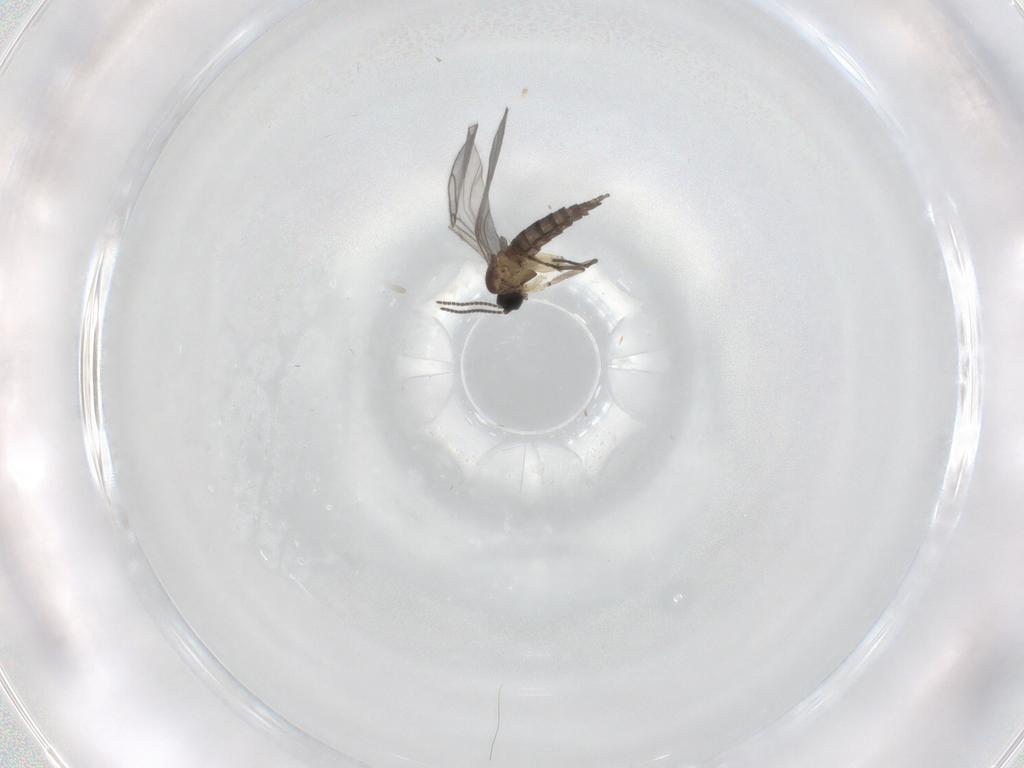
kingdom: Animalia
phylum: Arthropoda
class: Insecta
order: Diptera
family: Sciaridae
